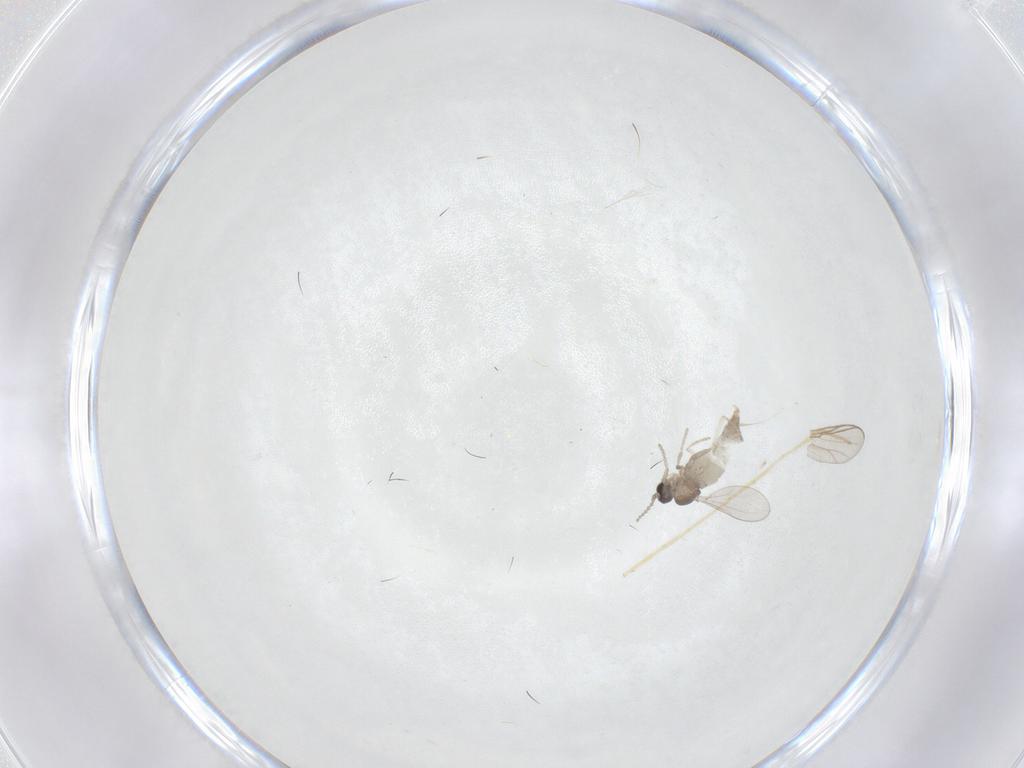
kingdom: Animalia
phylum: Arthropoda
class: Insecta
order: Diptera
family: Cecidomyiidae
